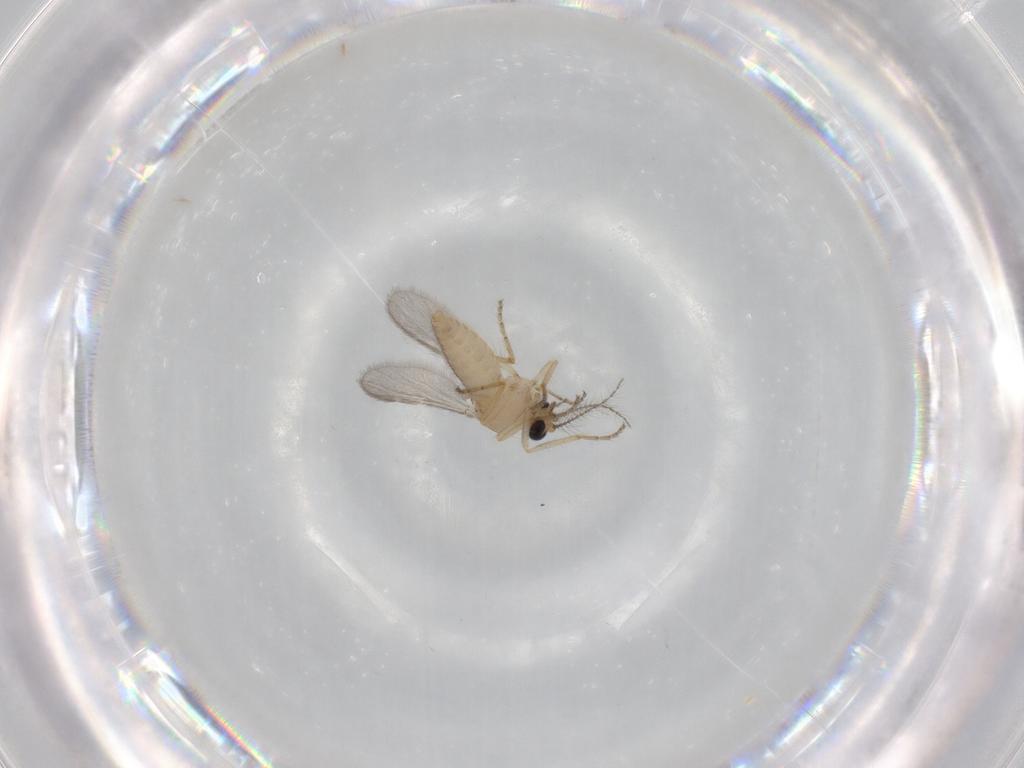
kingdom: Animalia
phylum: Arthropoda
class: Insecta
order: Diptera
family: Ceratopogonidae
